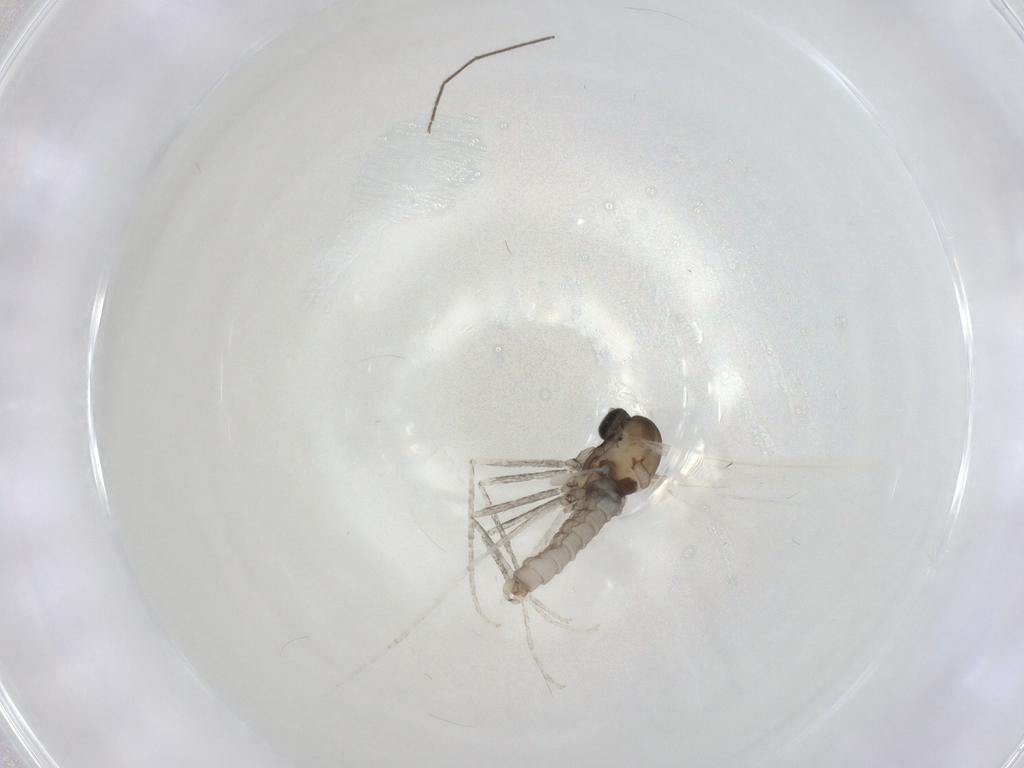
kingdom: Animalia
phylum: Arthropoda
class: Insecta
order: Diptera
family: Cecidomyiidae
